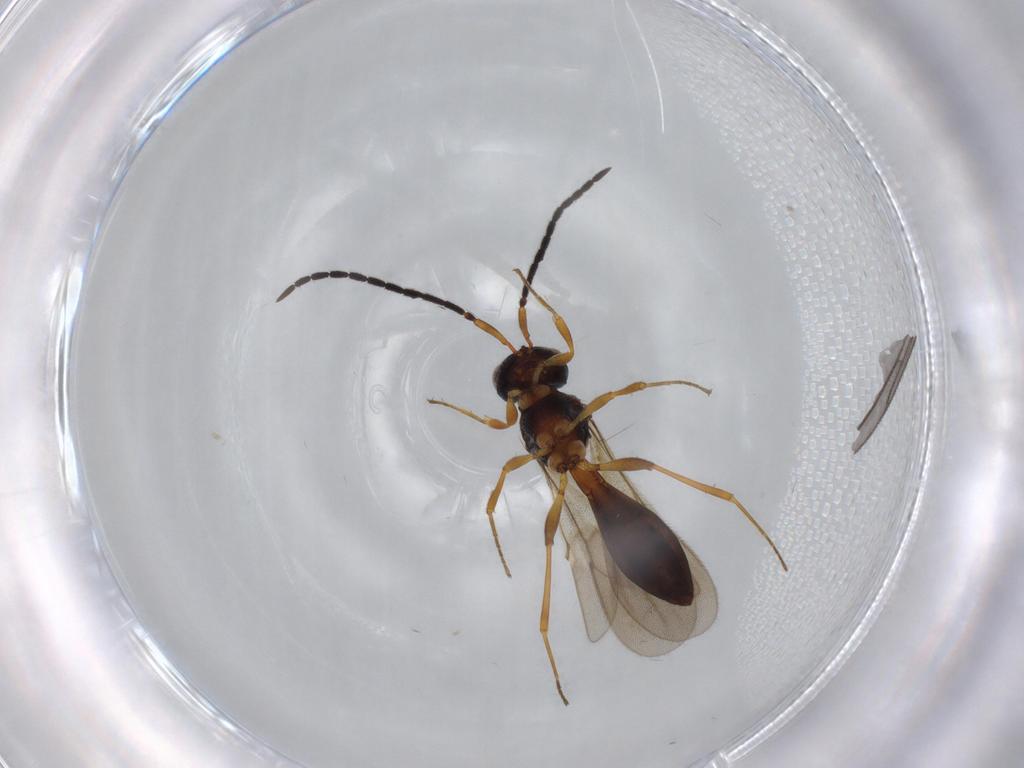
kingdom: Animalia
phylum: Arthropoda
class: Insecta
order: Hymenoptera
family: Scelionidae
